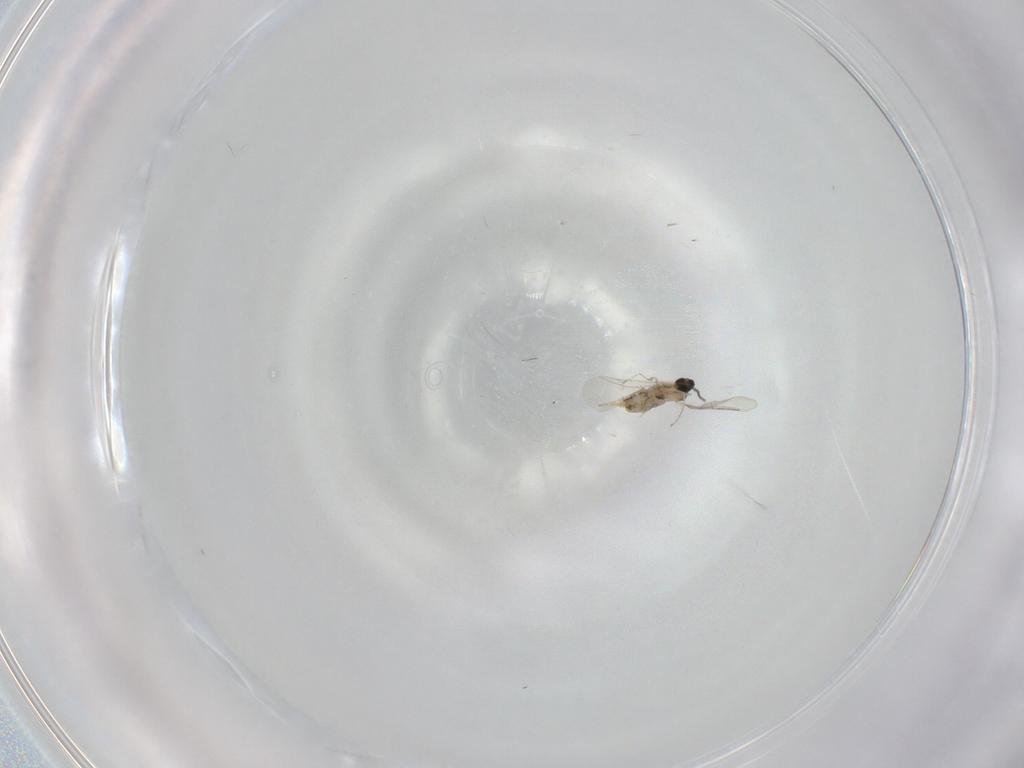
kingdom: Animalia
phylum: Arthropoda
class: Insecta
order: Diptera
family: Cecidomyiidae
